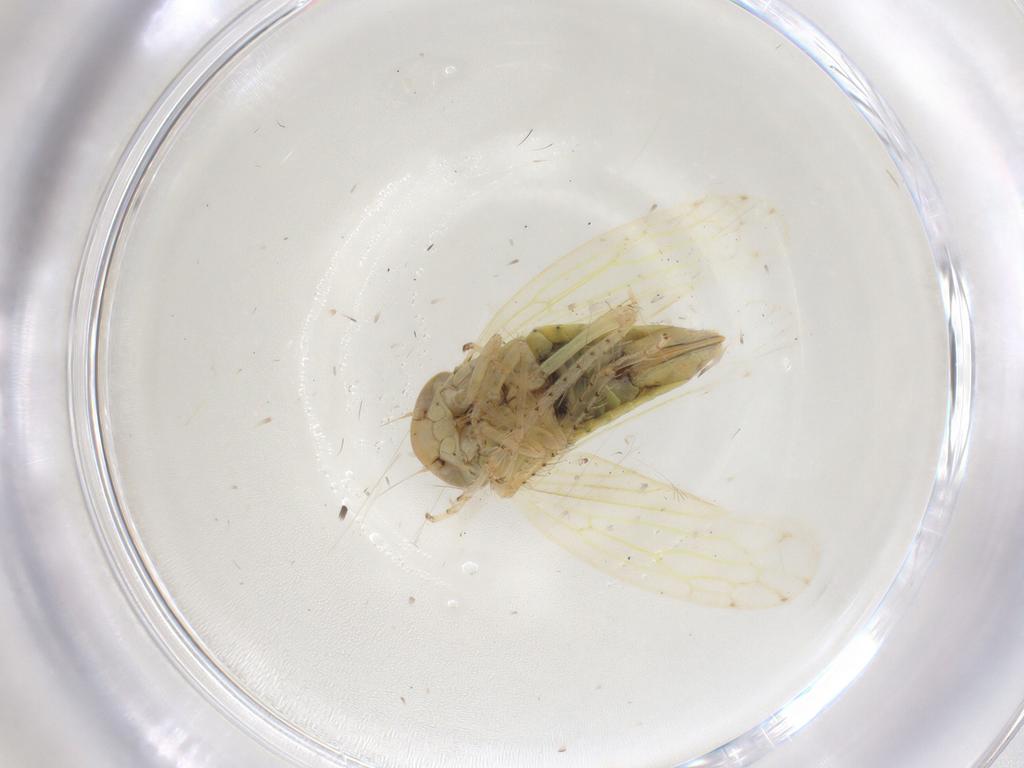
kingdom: Animalia
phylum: Arthropoda
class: Insecta
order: Hemiptera
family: Cicadellidae
